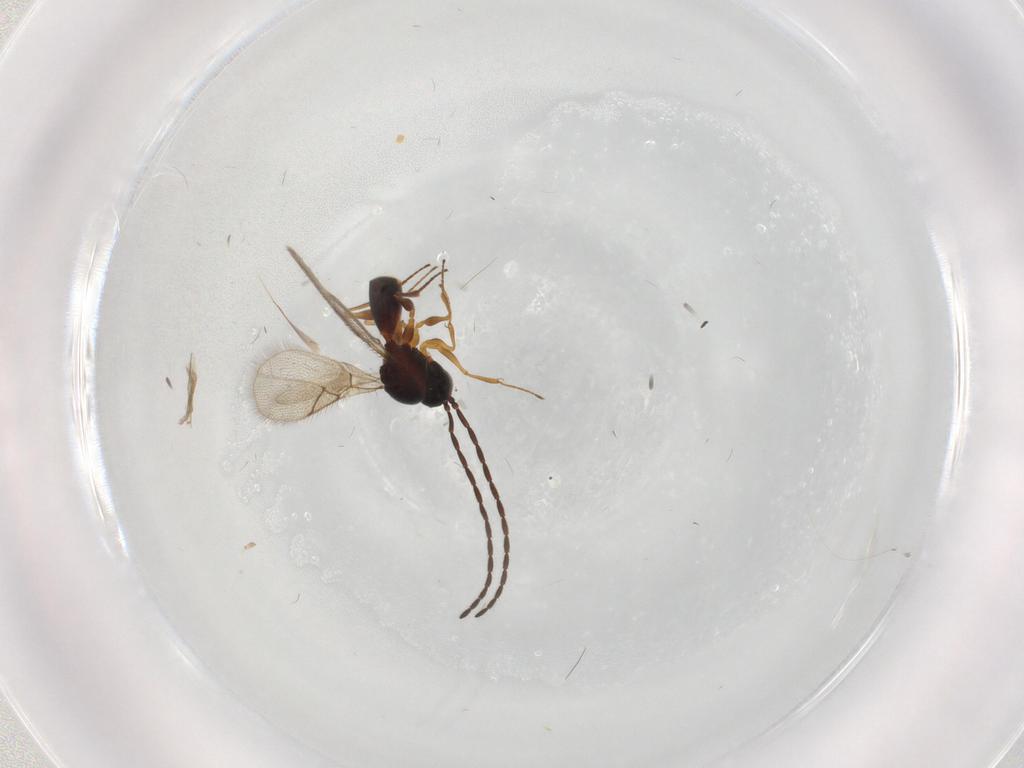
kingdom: Animalia
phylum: Arthropoda
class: Insecta
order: Hymenoptera
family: Figitidae
